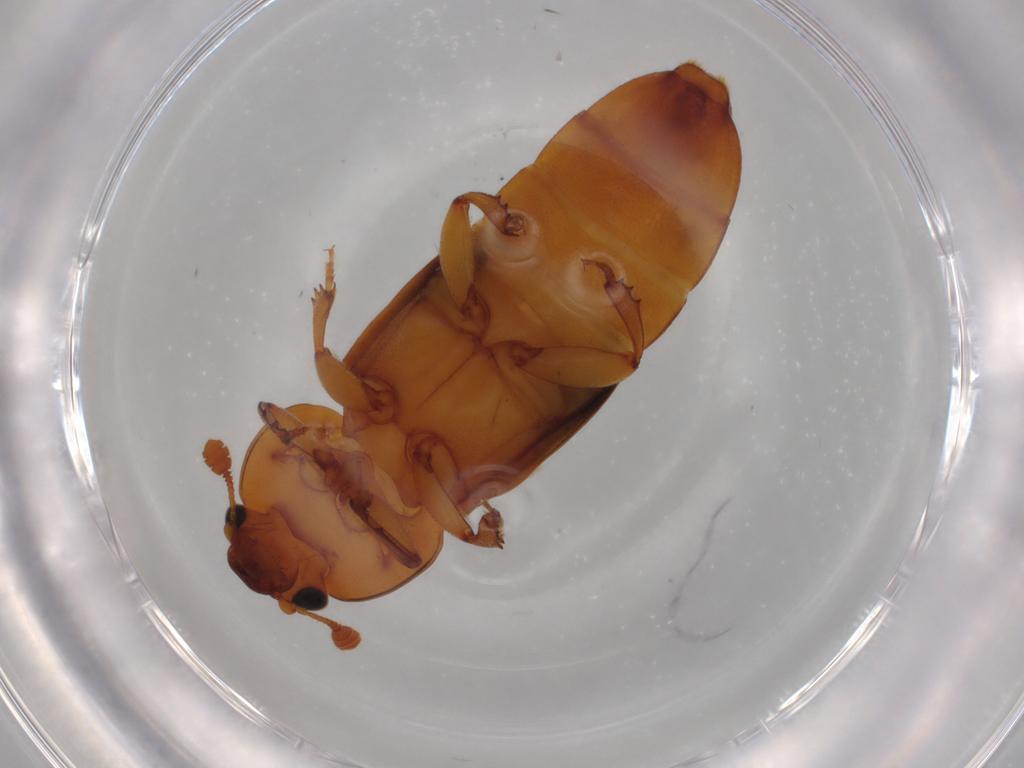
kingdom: Animalia
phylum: Arthropoda
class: Insecta
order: Coleoptera
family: Nitidulidae
